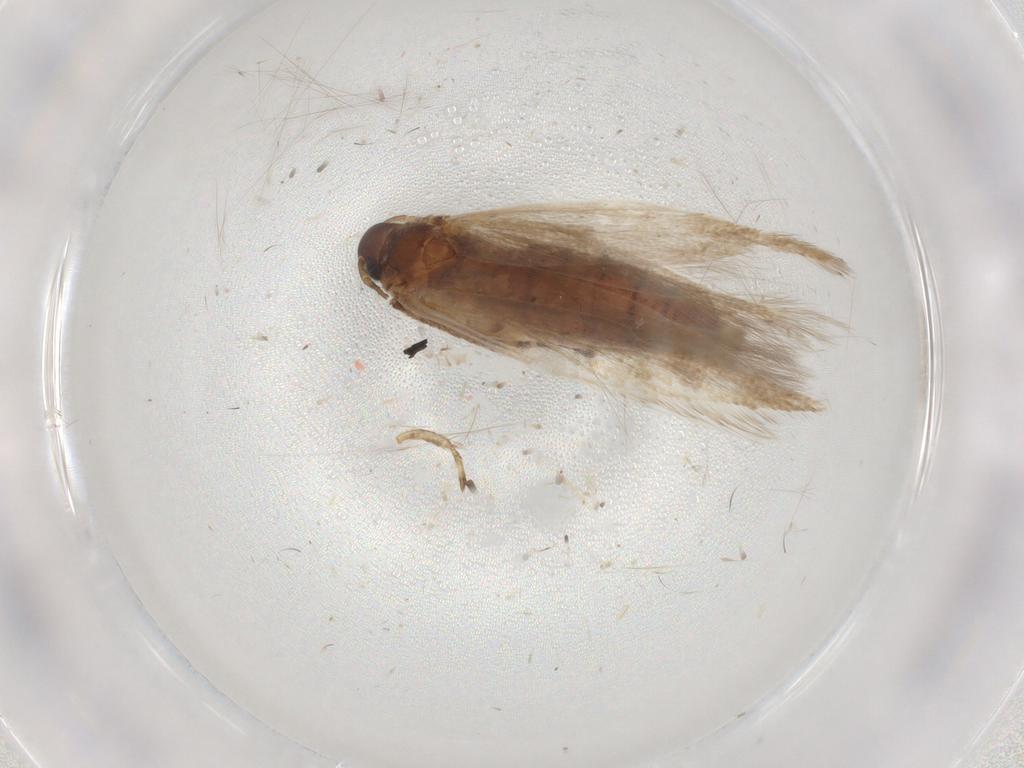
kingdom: Animalia
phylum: Arthropoda
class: Insecta
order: Lepidoptera
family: Gelechiidae
